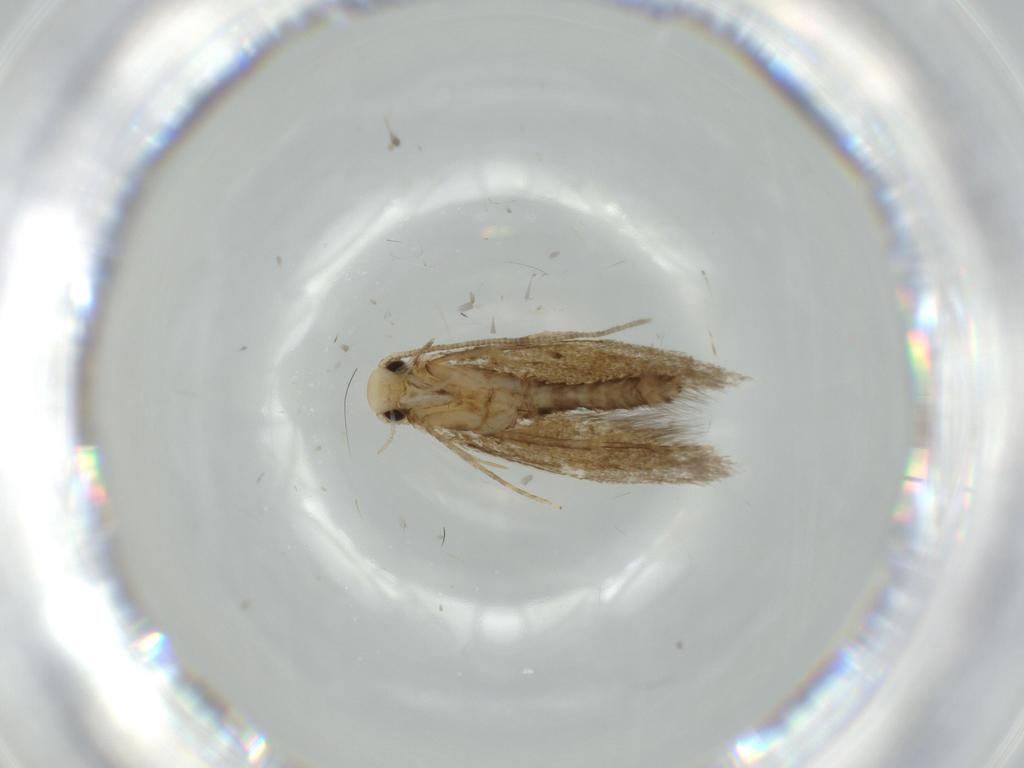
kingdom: Animalia
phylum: Arthropoda
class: Insecta
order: Lepidoptera
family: Tineidae
